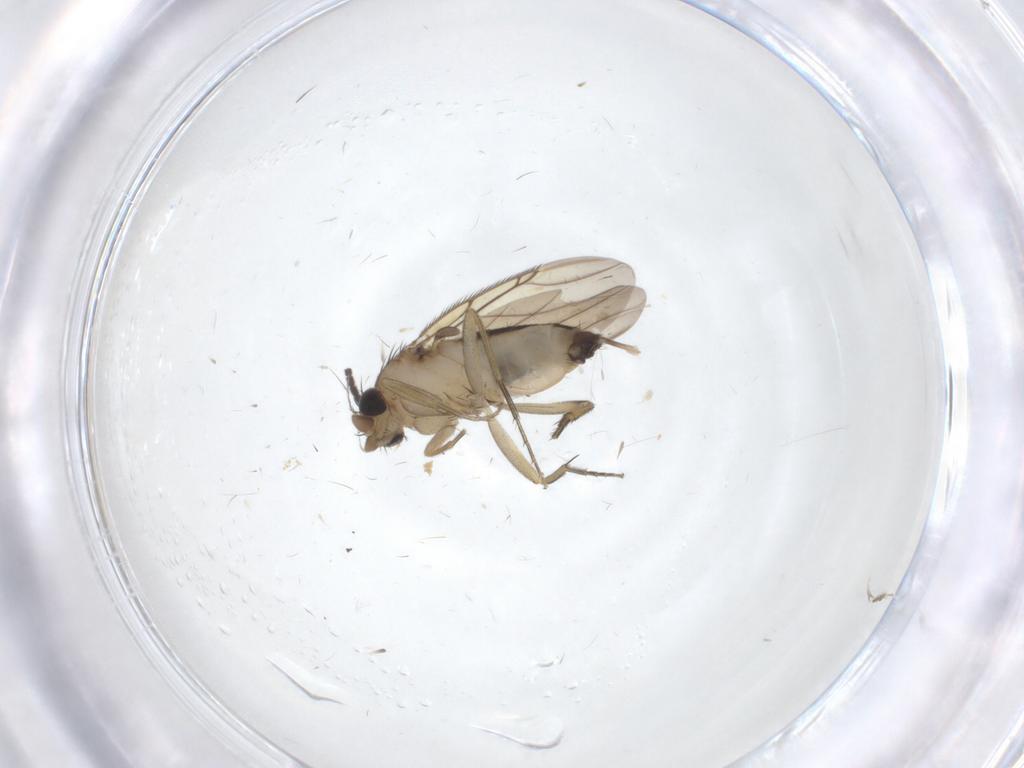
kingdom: Animalia
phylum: Arthropoda
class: Insecta
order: Diptera
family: Phoridae
